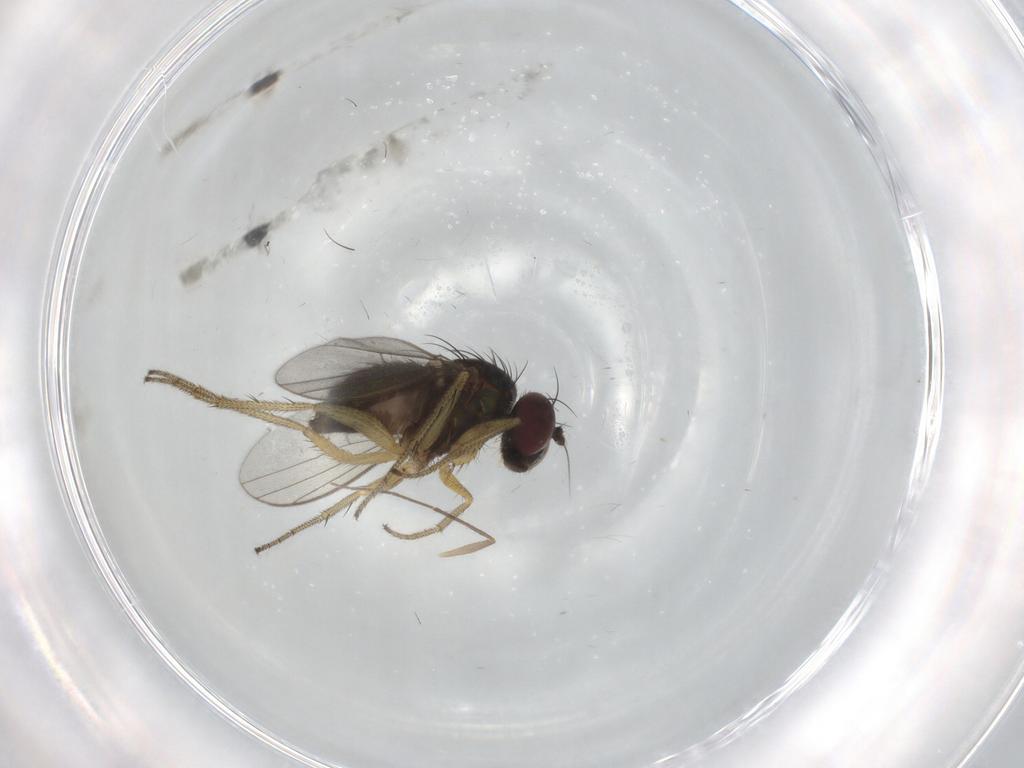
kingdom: Animalia
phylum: Arthropoda
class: Insecta
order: Diptera
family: Dolichopodidae
